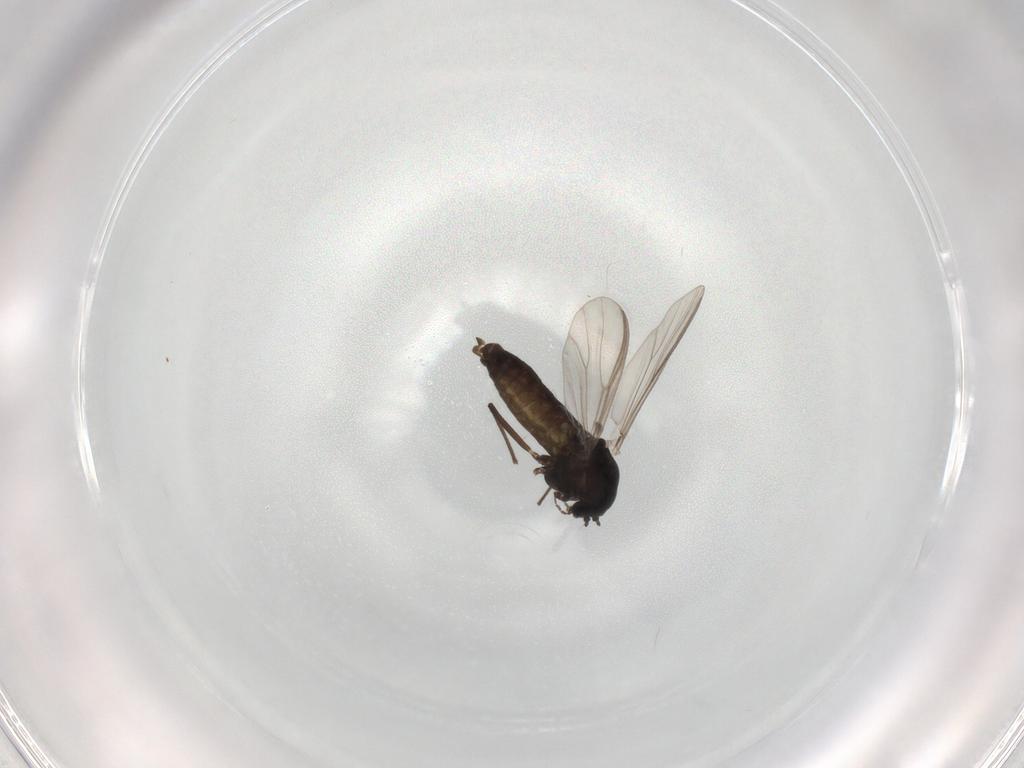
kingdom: Animalia
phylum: Arthropoda
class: Insecta
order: Diptera
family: Chironomidae
